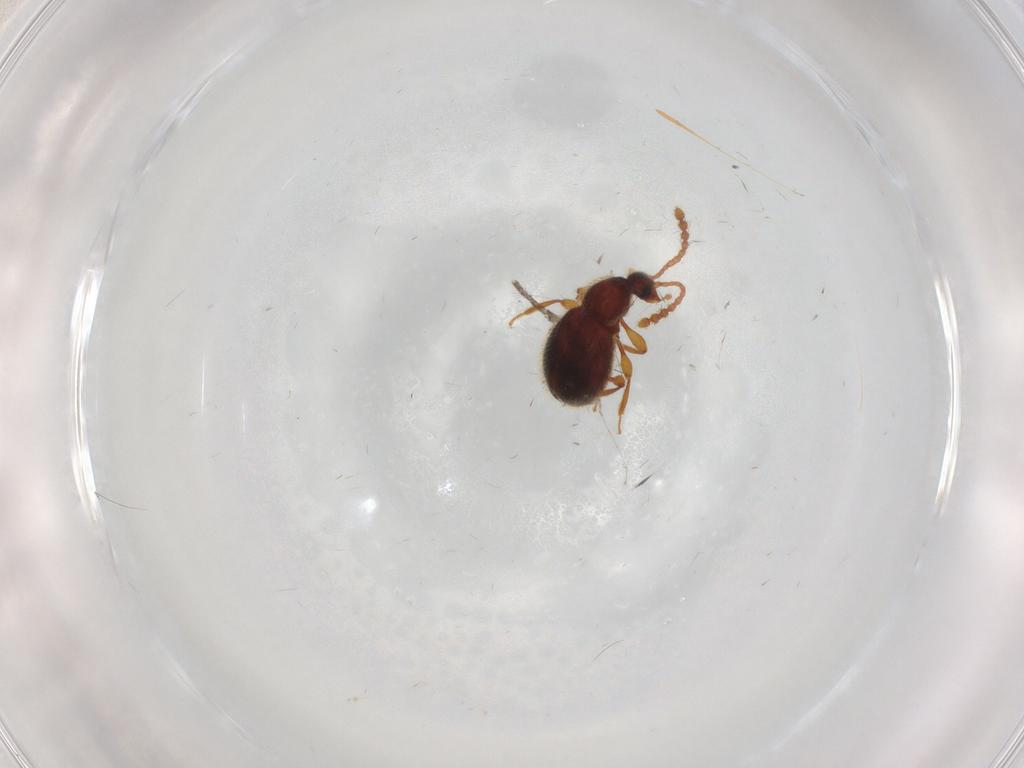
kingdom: Animalia
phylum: Arthropoda
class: Insecta
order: Coleoptera
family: Staphylinidae
